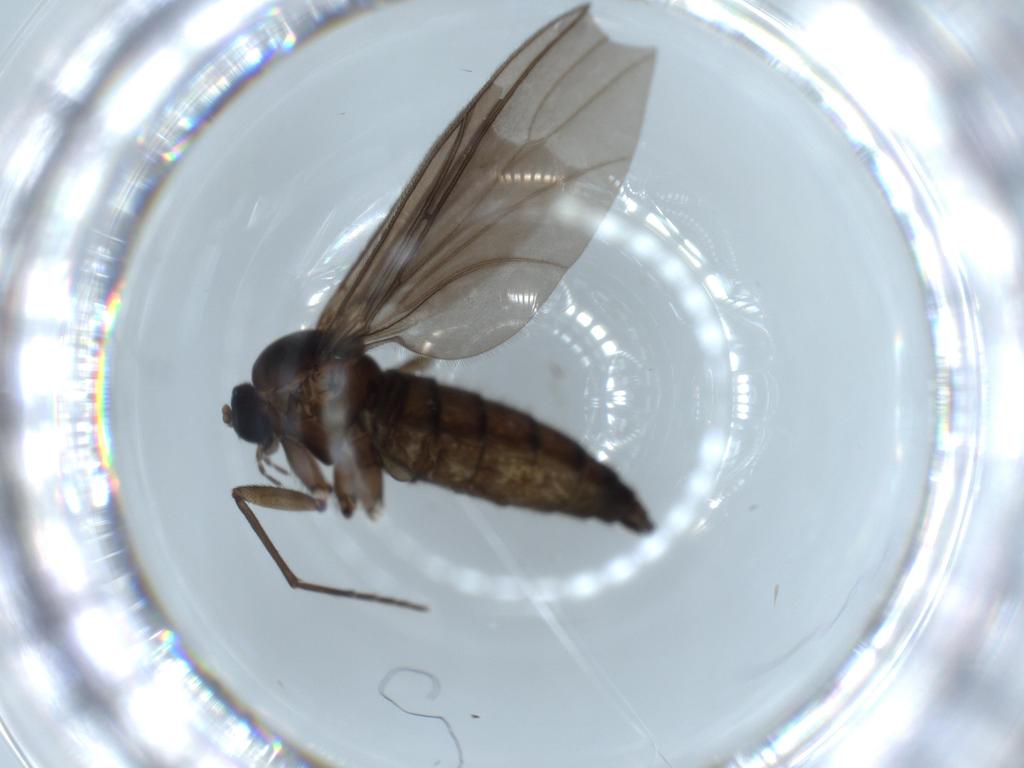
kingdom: Animalia
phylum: Arthropoda
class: Insecta
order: Diptera
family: Sciaridae
